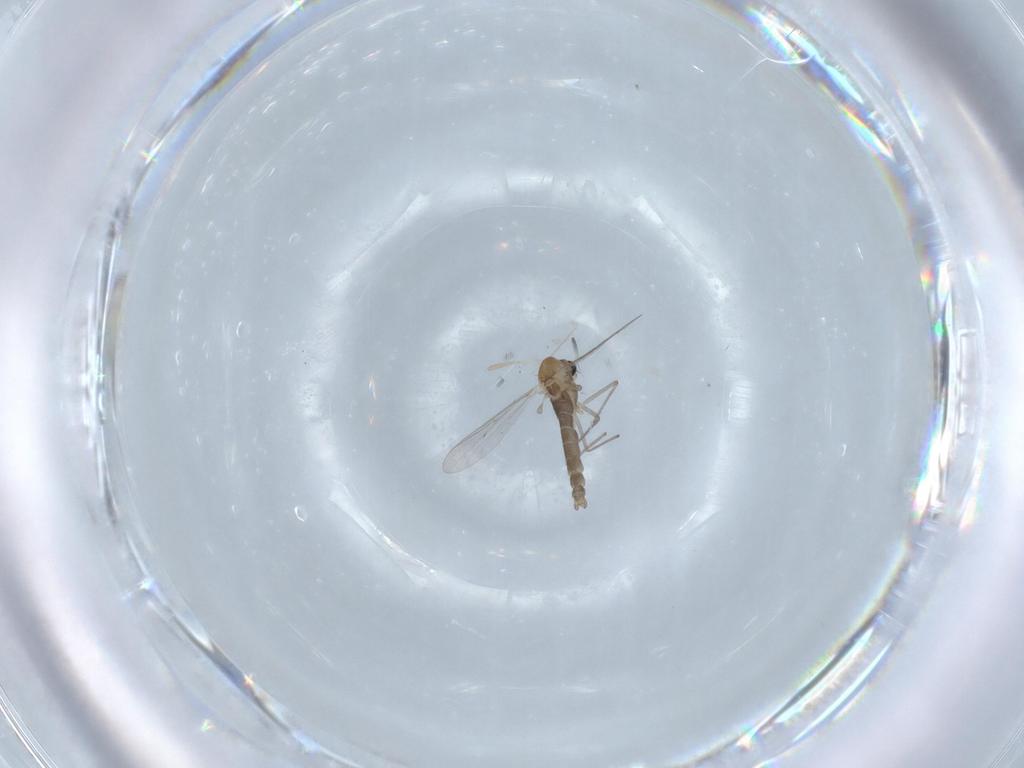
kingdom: Animalia
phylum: Arthropoda
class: Insecta
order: Diptera
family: Chironomidae
